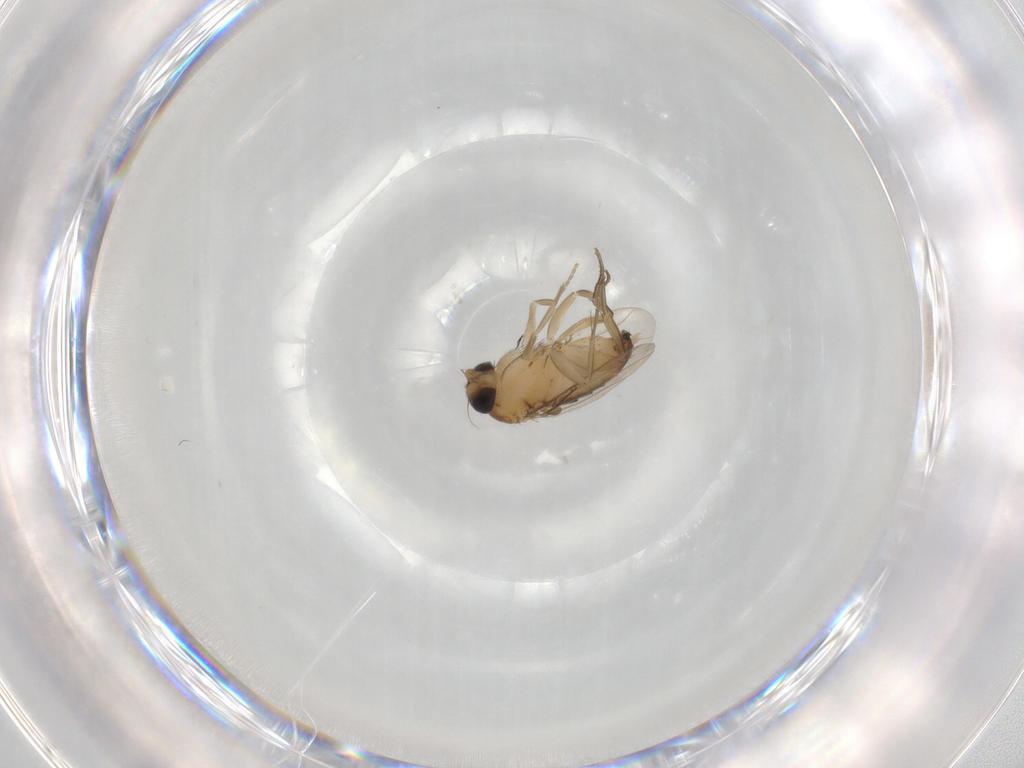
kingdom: Animalia
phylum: Arthropoda
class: Insecta
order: Diptera
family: Phoridae
